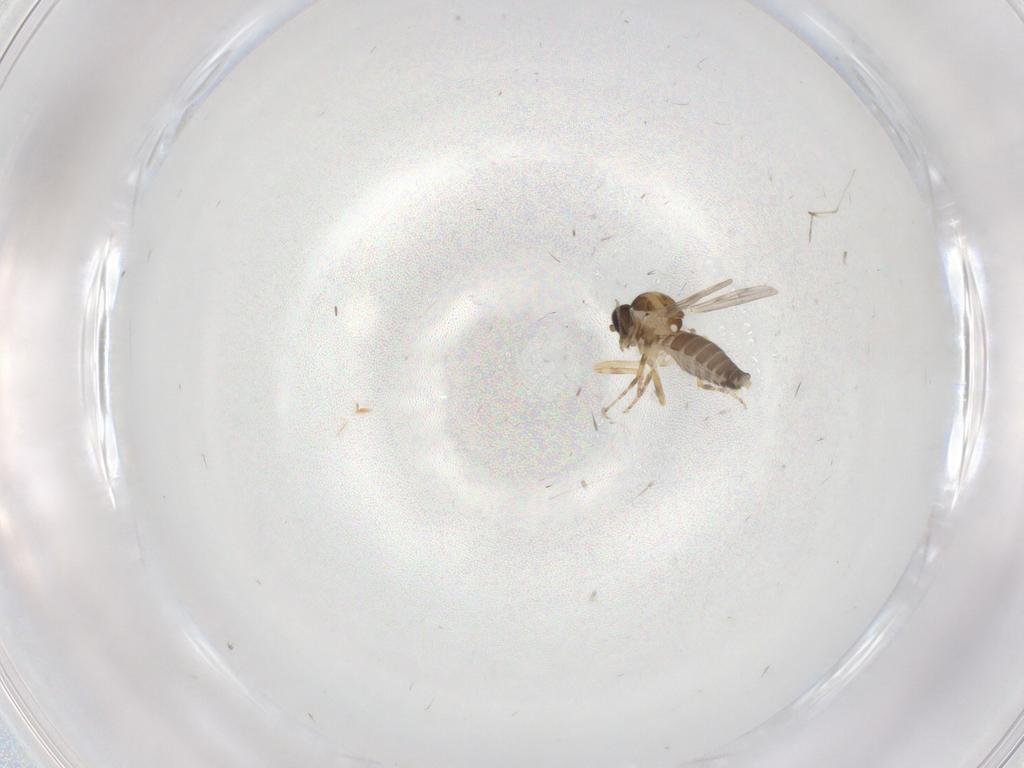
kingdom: Animalia
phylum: Arthropoda
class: Insecta
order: Diptera
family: Ceratopogonidae
